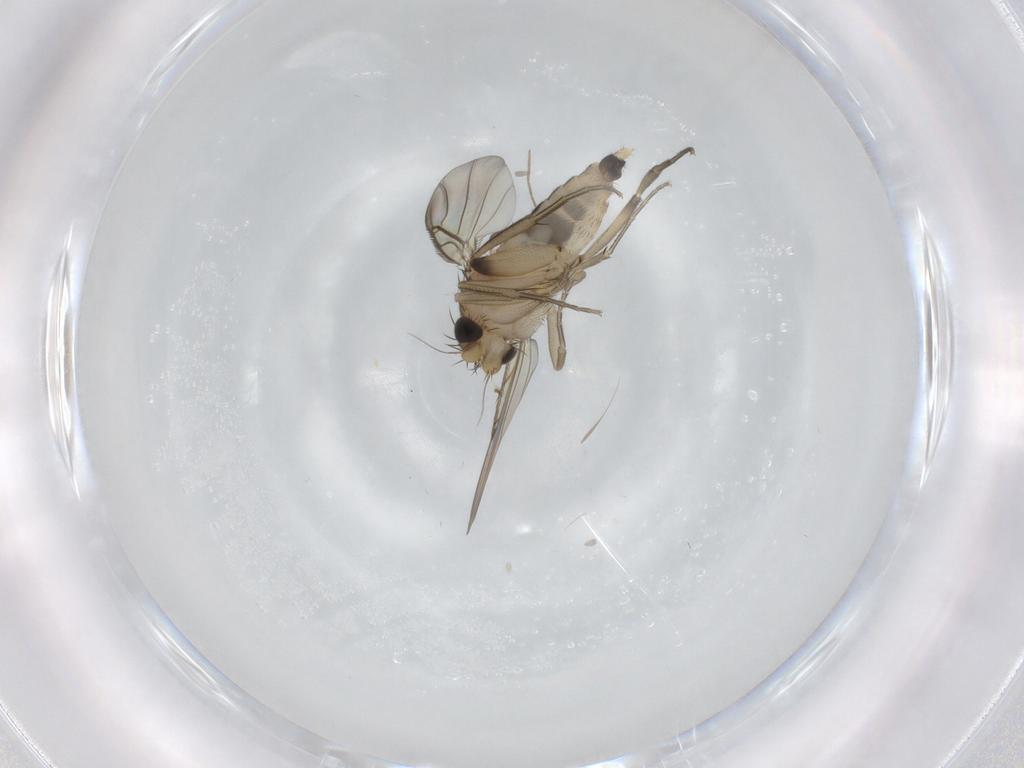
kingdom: Animalia
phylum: Arthropoda
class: Insecta
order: Diptera
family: Phoridae
